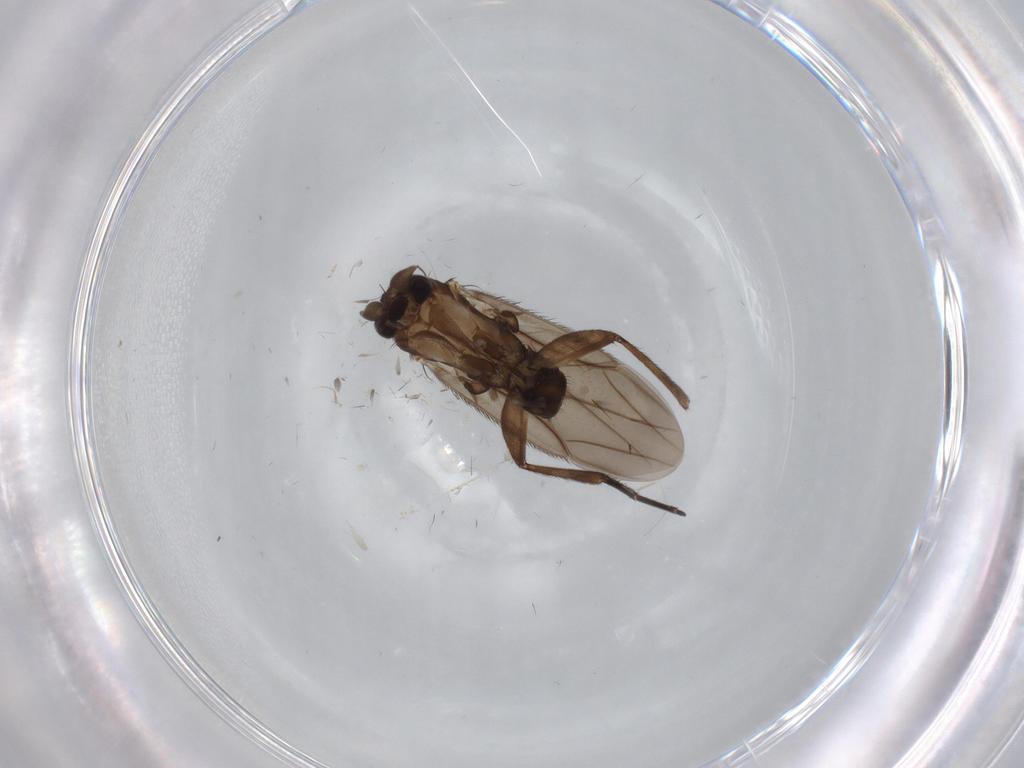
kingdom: Animalia
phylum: Arthropoda
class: Insecta
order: Diptera
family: Phoridae
